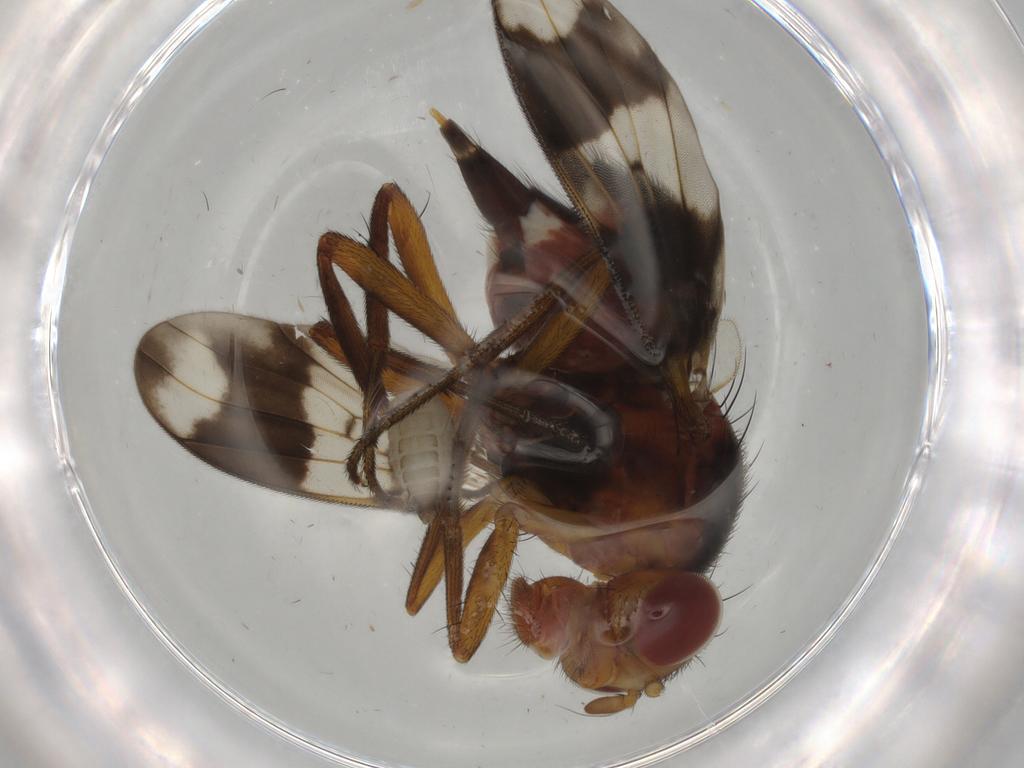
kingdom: Animalia
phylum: Arthropoda
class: Insecta
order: Diptera
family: Richardiidae
